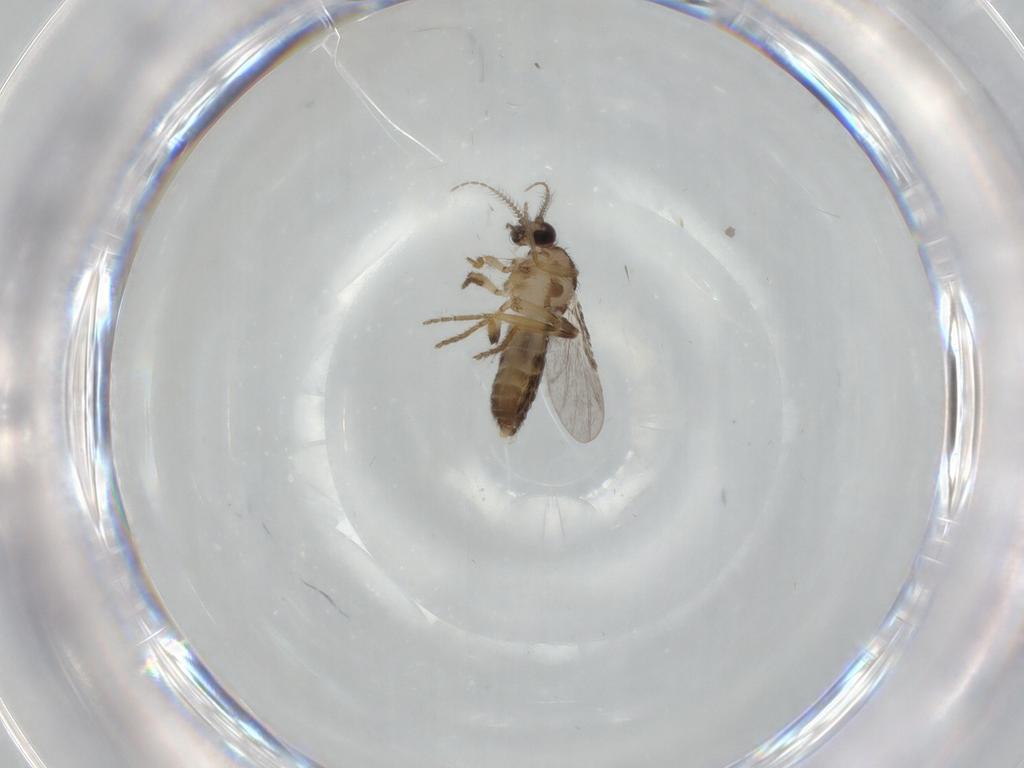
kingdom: Animalia
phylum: Arthropoda
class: Insecta
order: Diptera
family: Ceratopogonidae
